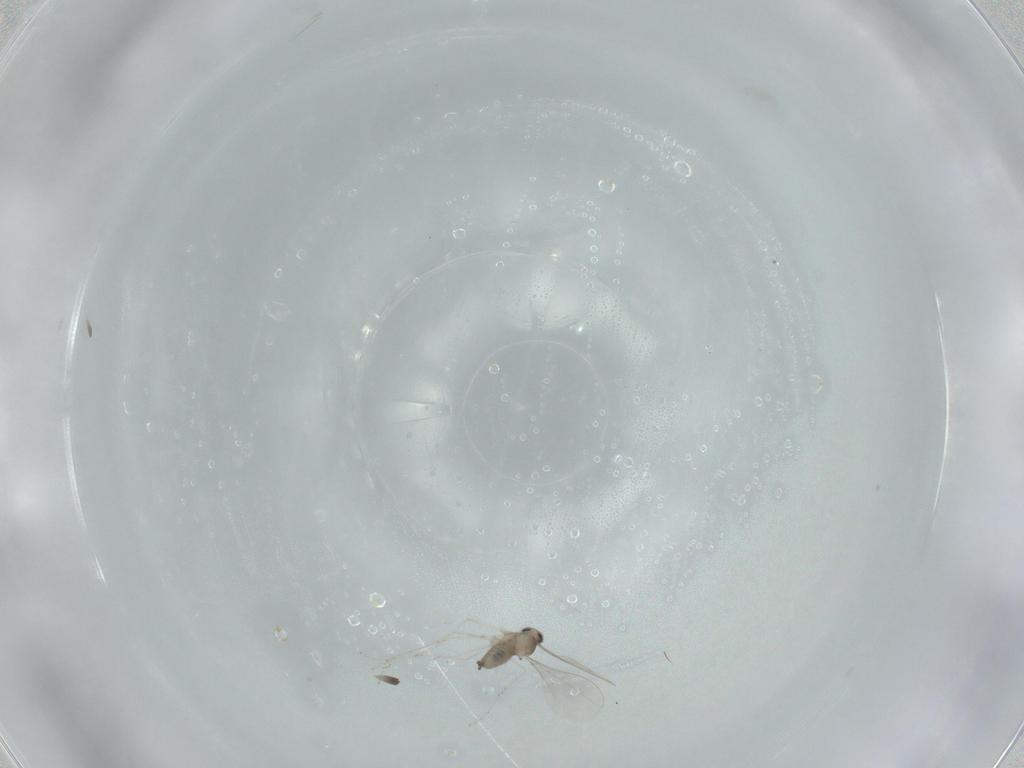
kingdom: Animalia
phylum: Arthropoda
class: Insecta
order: Diptera
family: Cecidomyiidae
